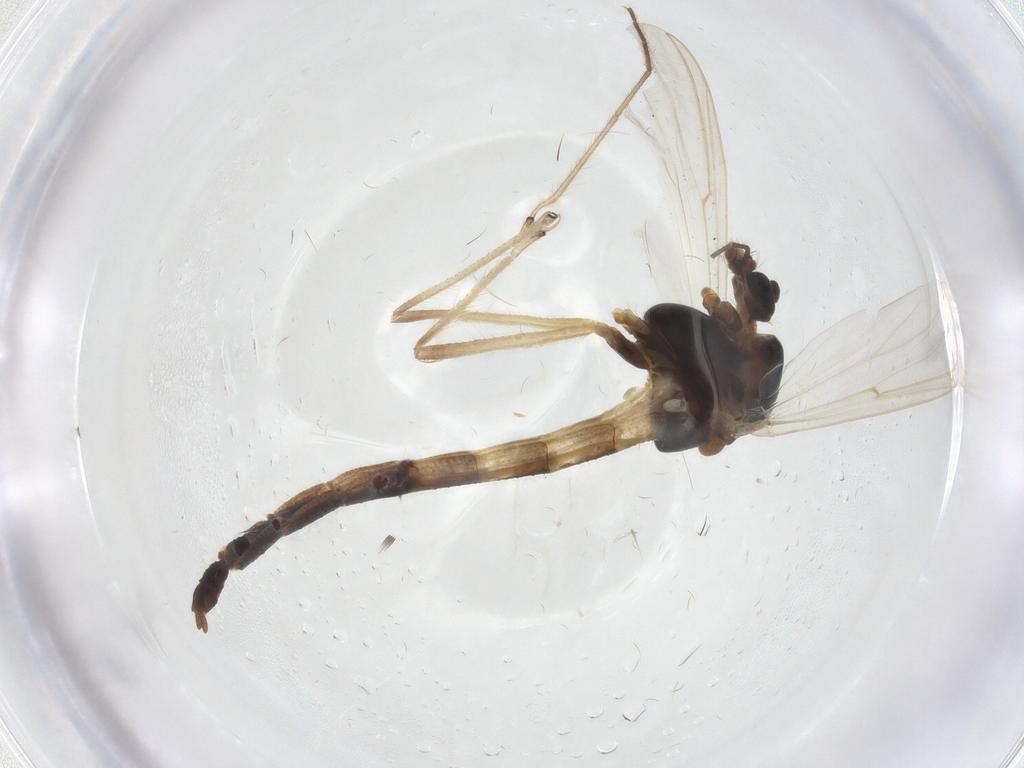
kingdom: Animalia
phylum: Arthropoda
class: Insecta
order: Diptera
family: Chironomidae
